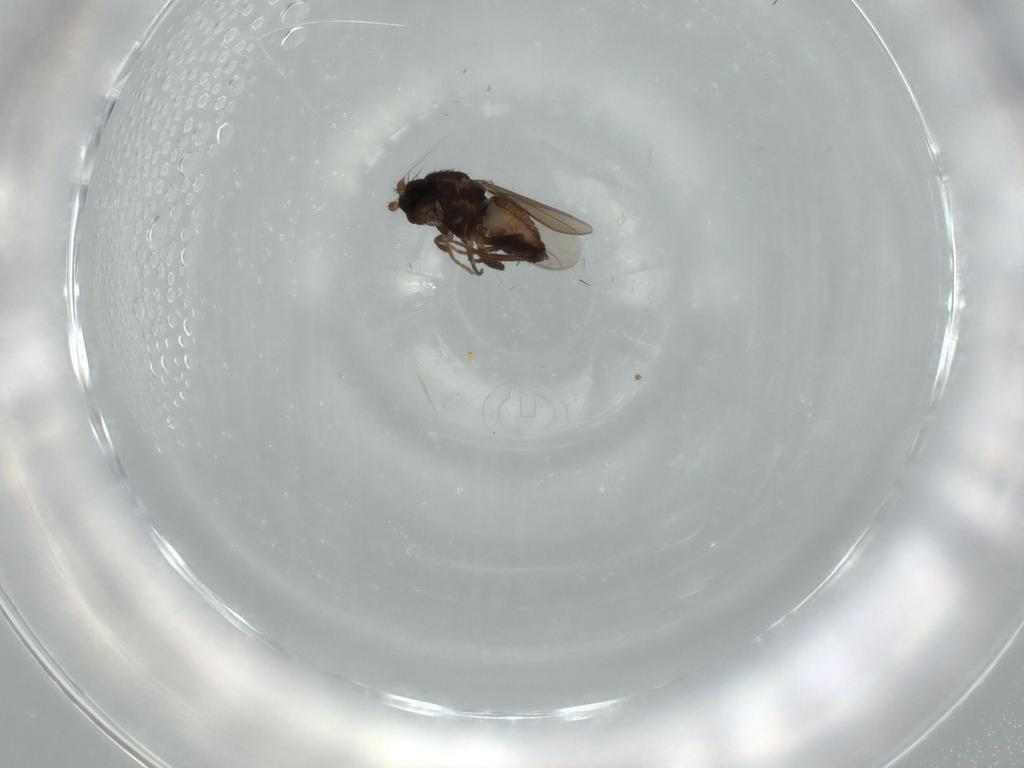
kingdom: Animalia
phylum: Arthropoda
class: Insecta
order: Diptera
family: Sphaeroceridae
